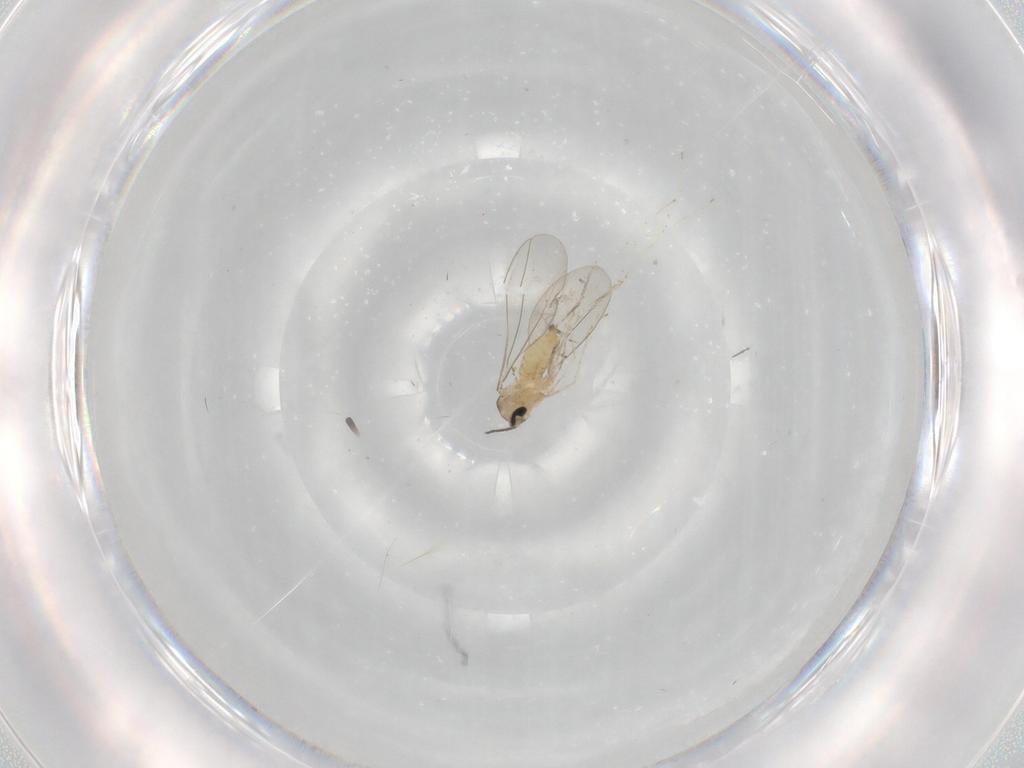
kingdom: Animalia
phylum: Arthropoda
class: Insecta
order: Diptera
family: Cecidomyiidae
